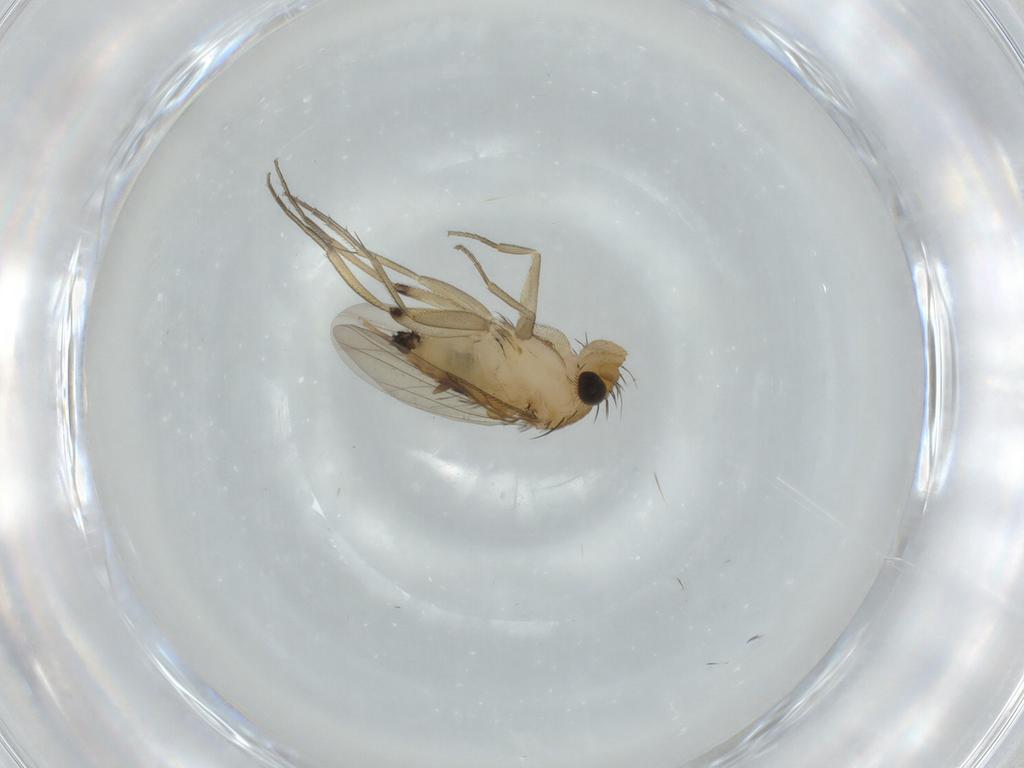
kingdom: Animalia
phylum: Arthropoda
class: Insecta
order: Diptera
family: Phoridae
